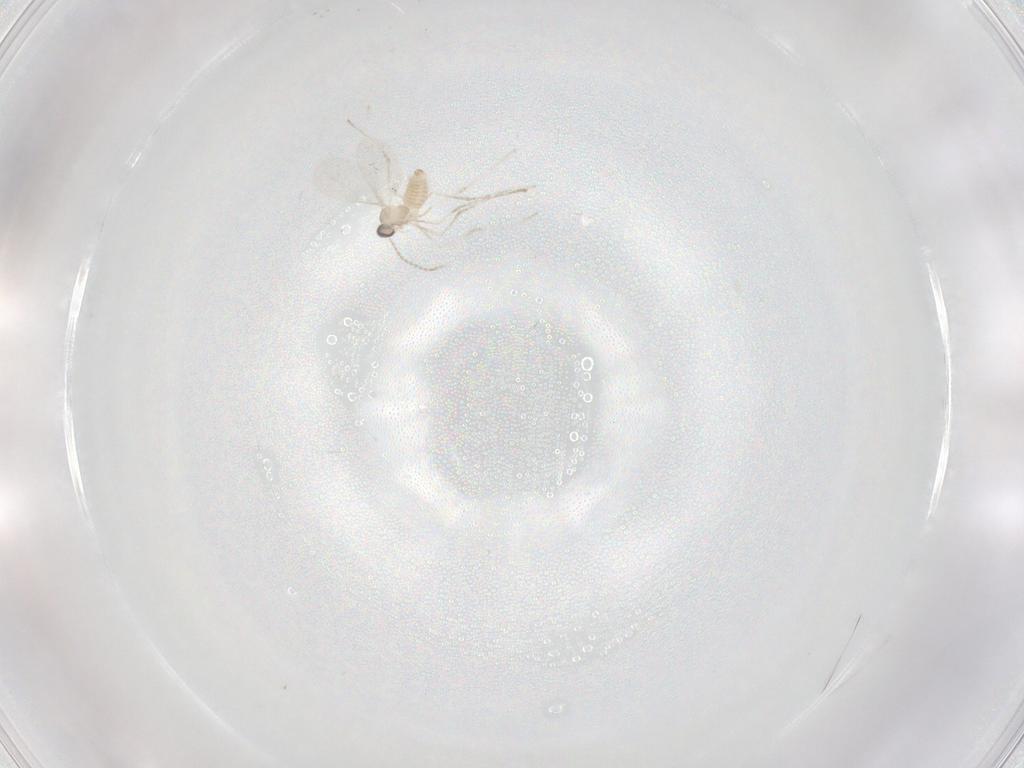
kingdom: Animalia
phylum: Arthropoda
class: Insecta
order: Diptera
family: Cecidomyiidae
